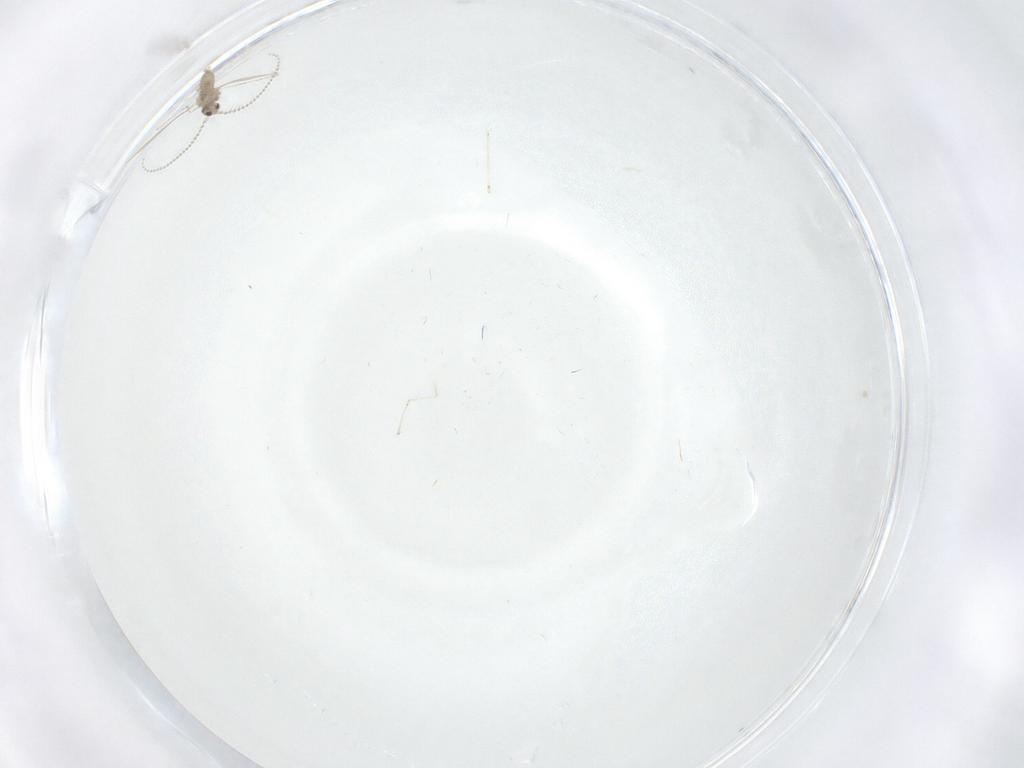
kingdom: Animalia
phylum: Arthropoda
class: Insecta
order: Diptera
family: Chironomidae
